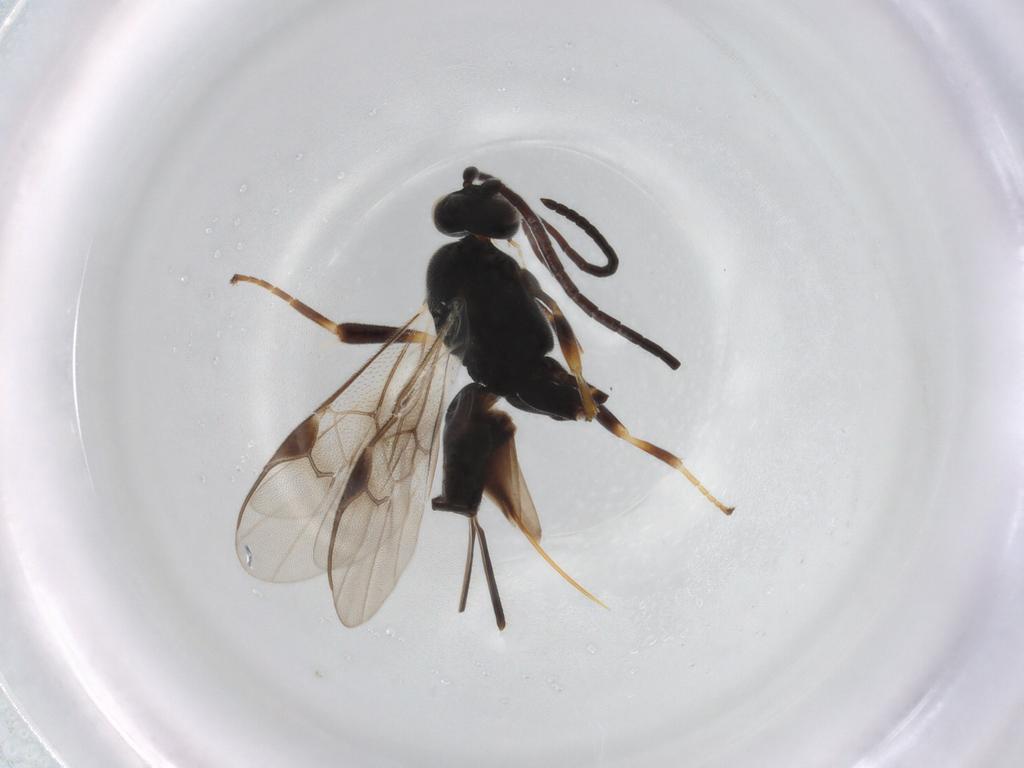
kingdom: Animalia
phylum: Arthropoda
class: Insecta
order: Hymenoptera
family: Braconidae
